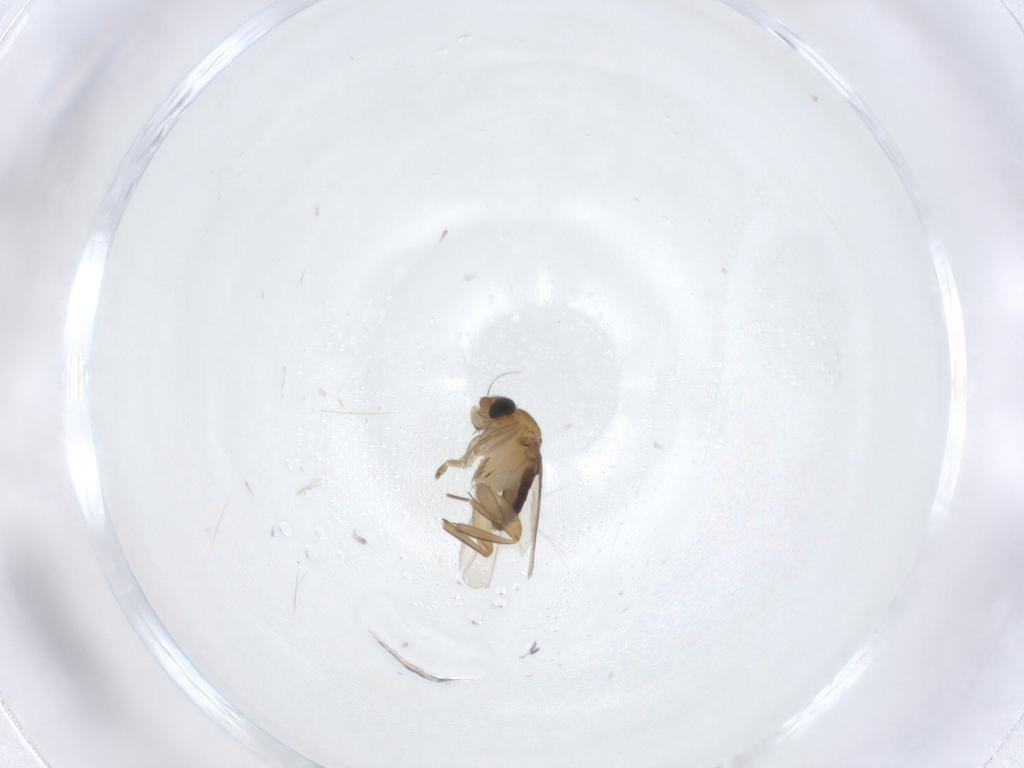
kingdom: Animalia
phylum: Arthropoda
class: Insecta
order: Diptera
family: Phoridae
